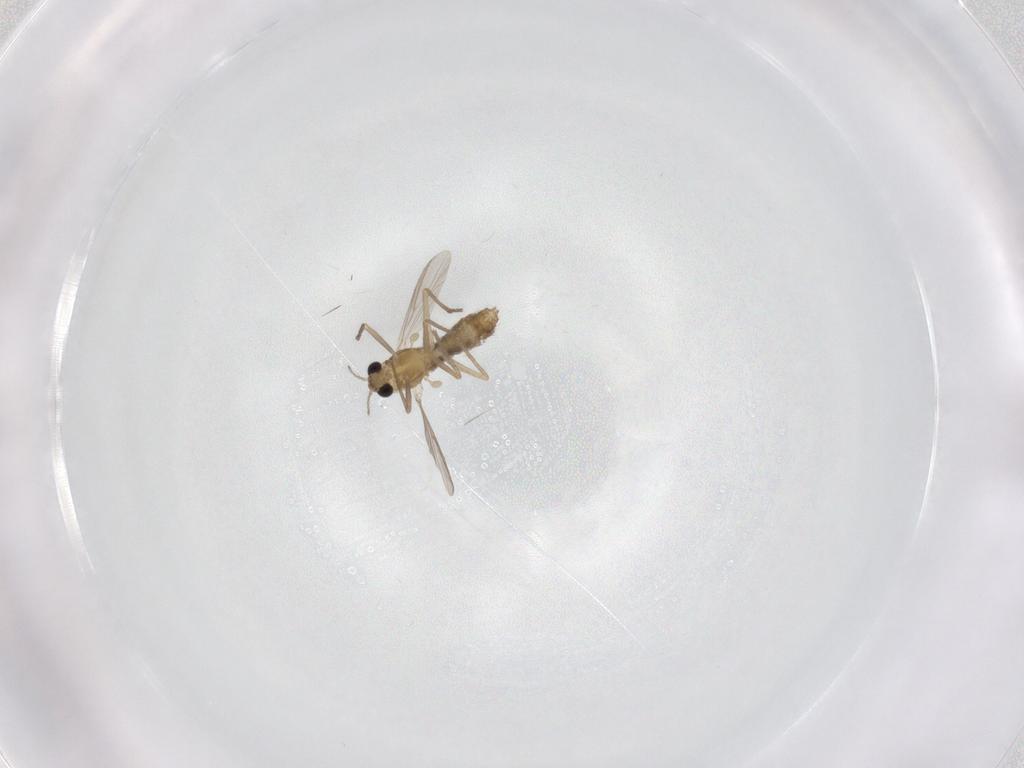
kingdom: Animalia
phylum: Arthropoda
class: Insecta
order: Diptera
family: Chironomidae
